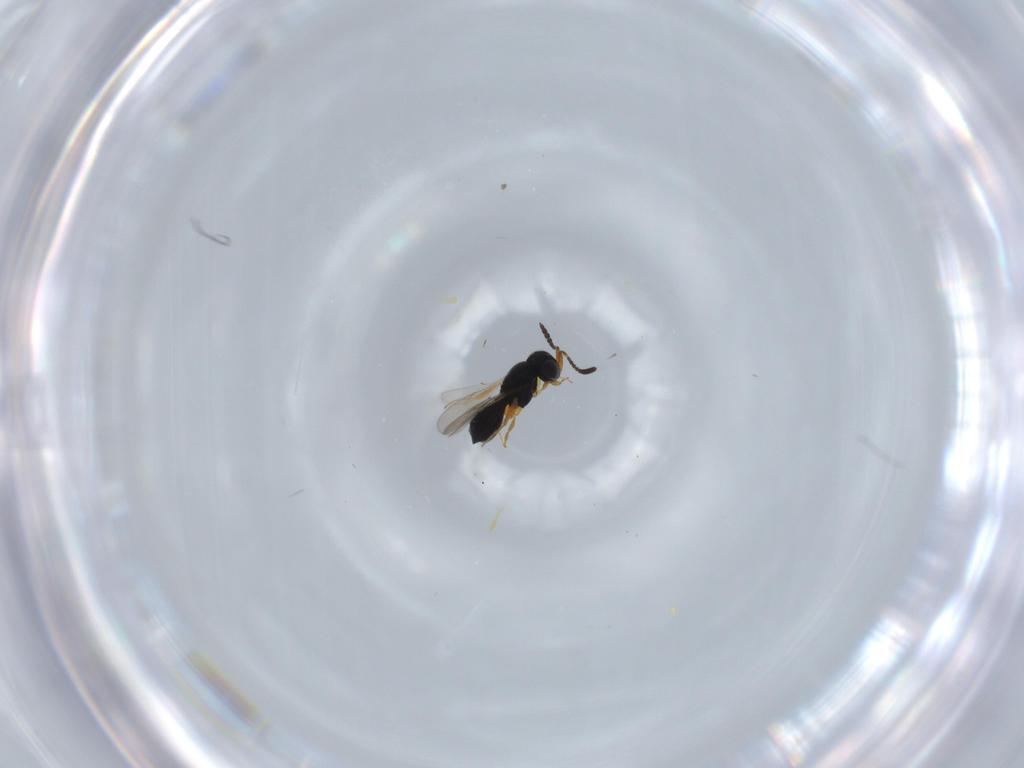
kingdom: Animalia
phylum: Arthropoda
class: Insecta
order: Hymenoptera
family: Scelionidae
